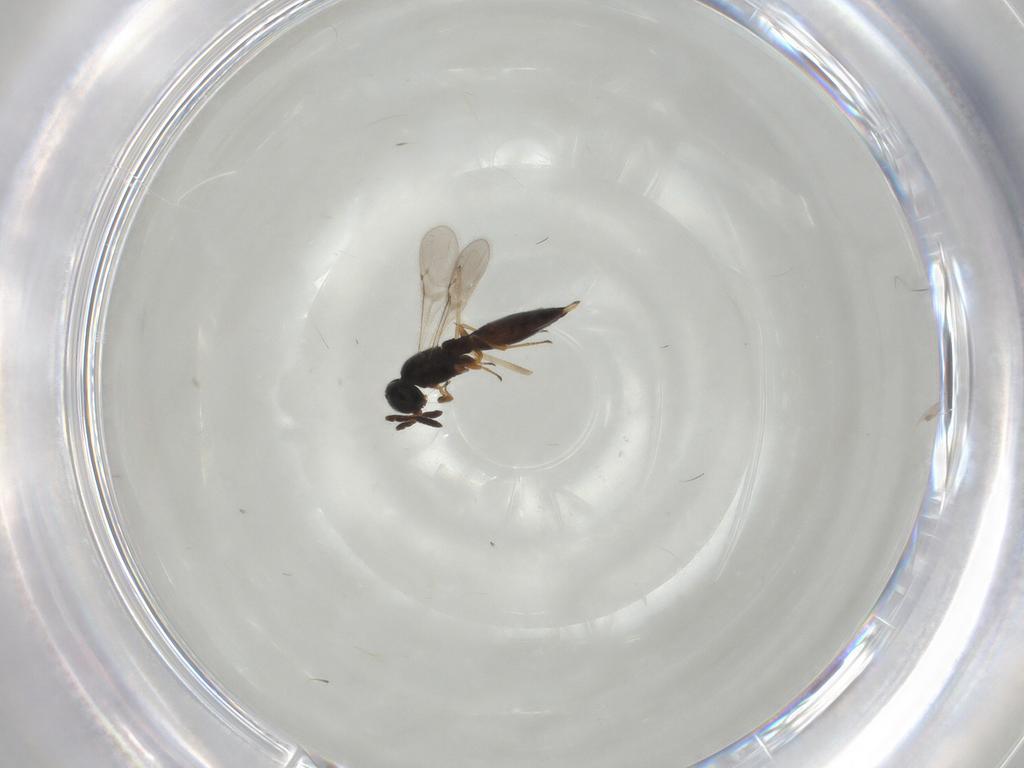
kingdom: Animalia
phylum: Arthropoda
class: Insecta
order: Hymenoptera
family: Scelionidae
